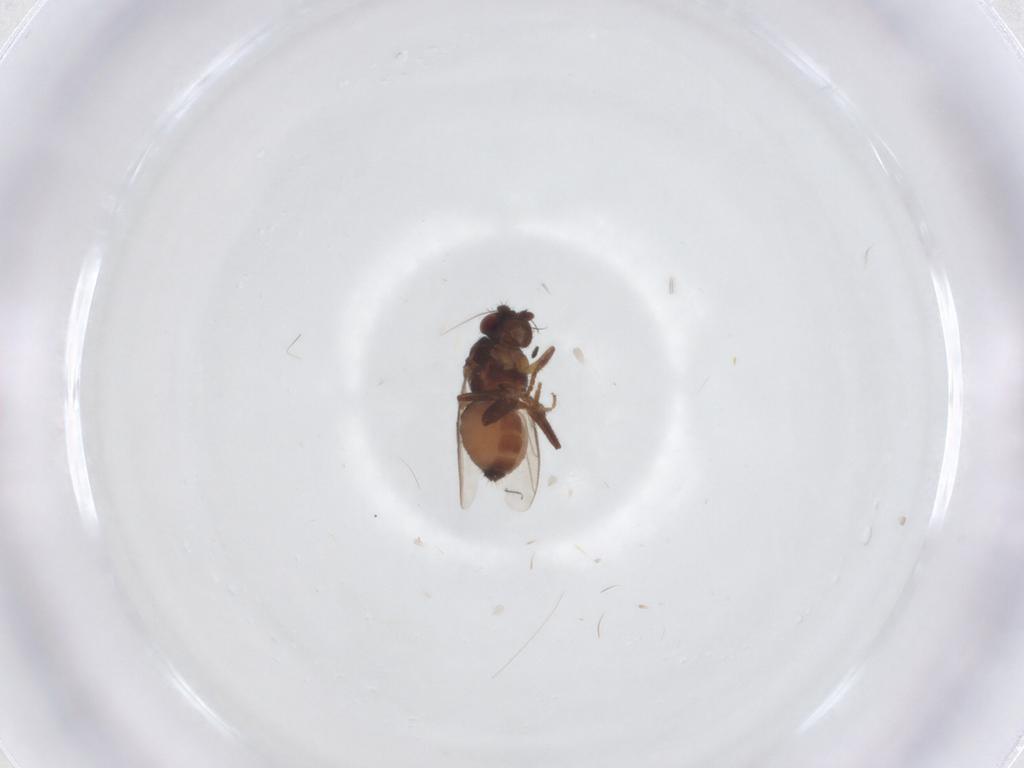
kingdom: Animalia
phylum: Arthropoda
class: Insecta
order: Diptera
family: Sphaeroceridae
